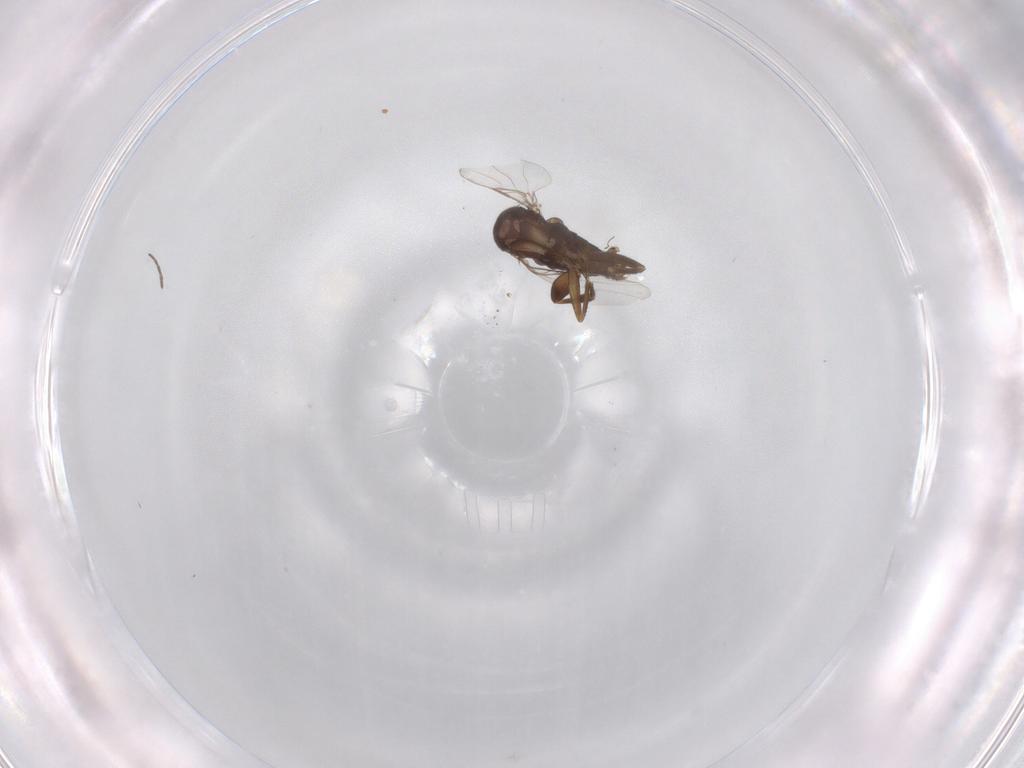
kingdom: Animalia
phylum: Arthropoda
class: Insecta
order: Diptera
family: Phoridae
